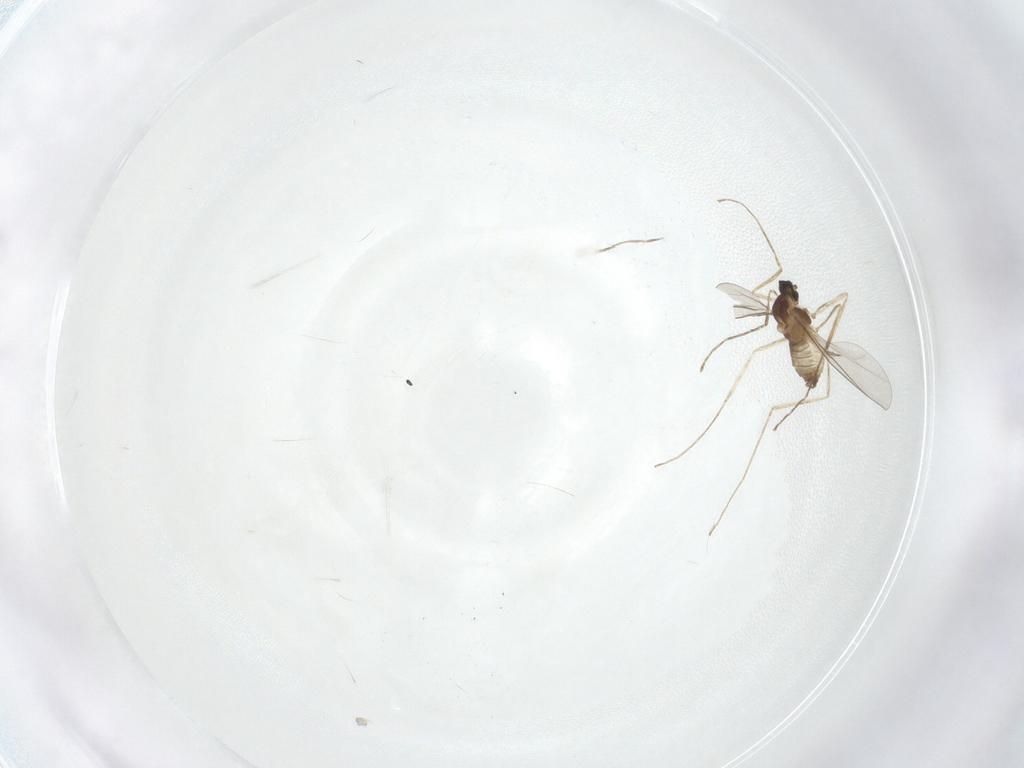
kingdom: Animalia
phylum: Arthropoda
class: Insecta
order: Diptera
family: Cecidomyiidae
